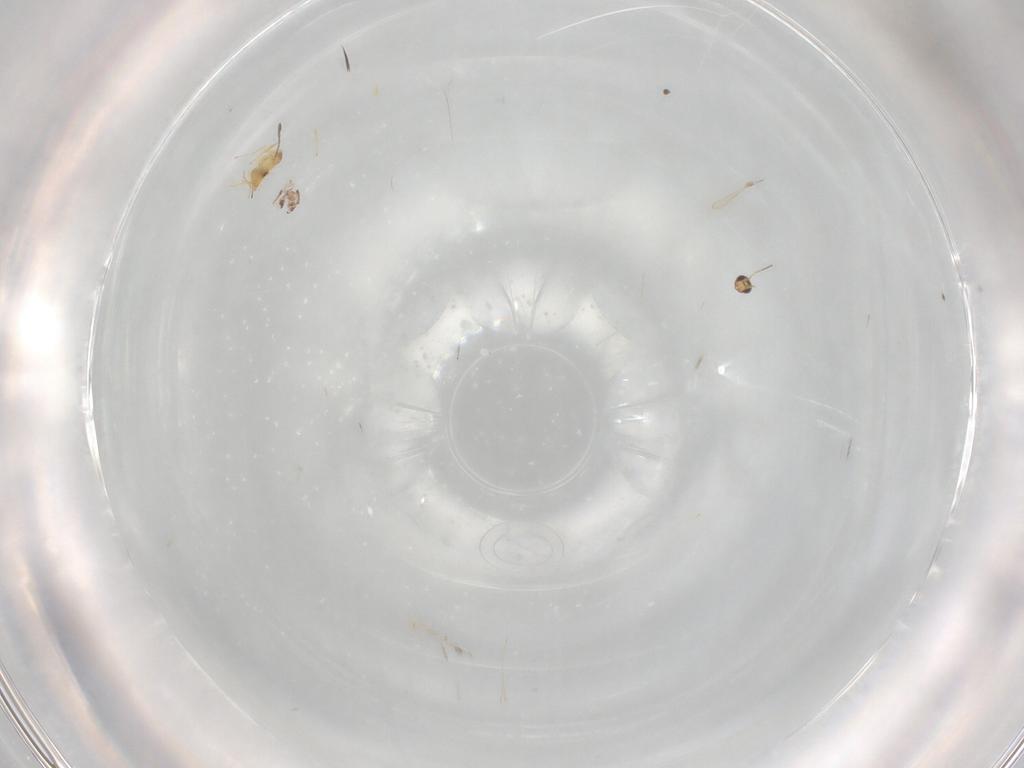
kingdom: Animalia
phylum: Arthropoda
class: Insecta
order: Hymenoptera
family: Mymaridae
